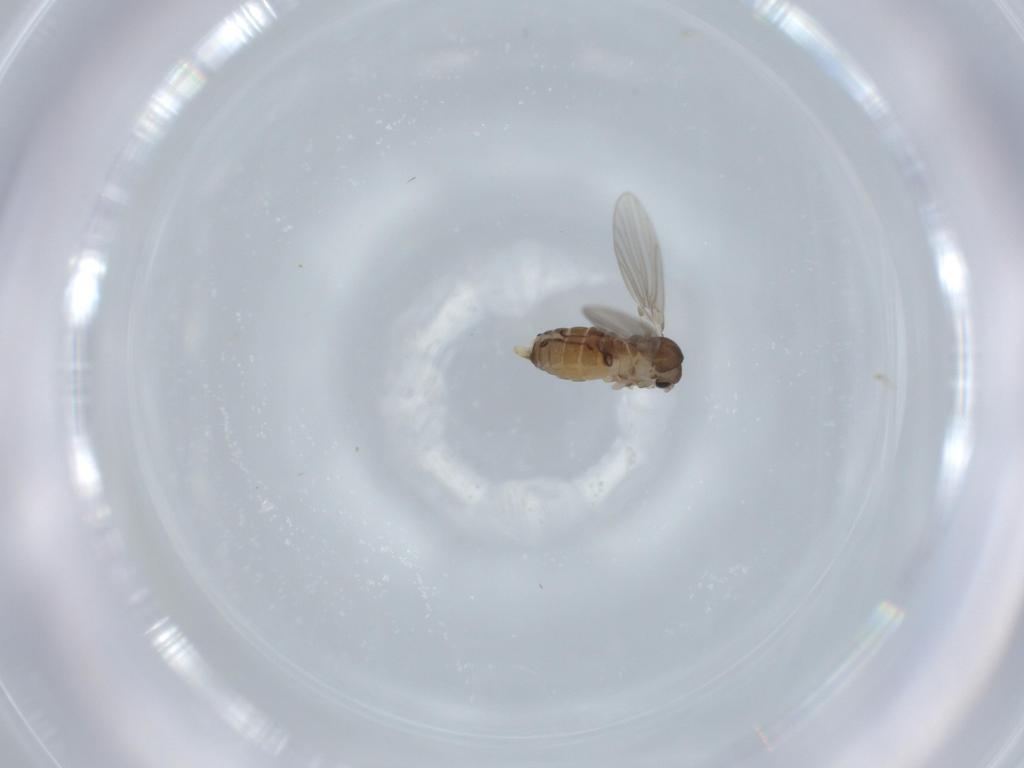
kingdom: Animalia
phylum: Arthropoda
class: Insecta
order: Diptera
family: Psychodidae
